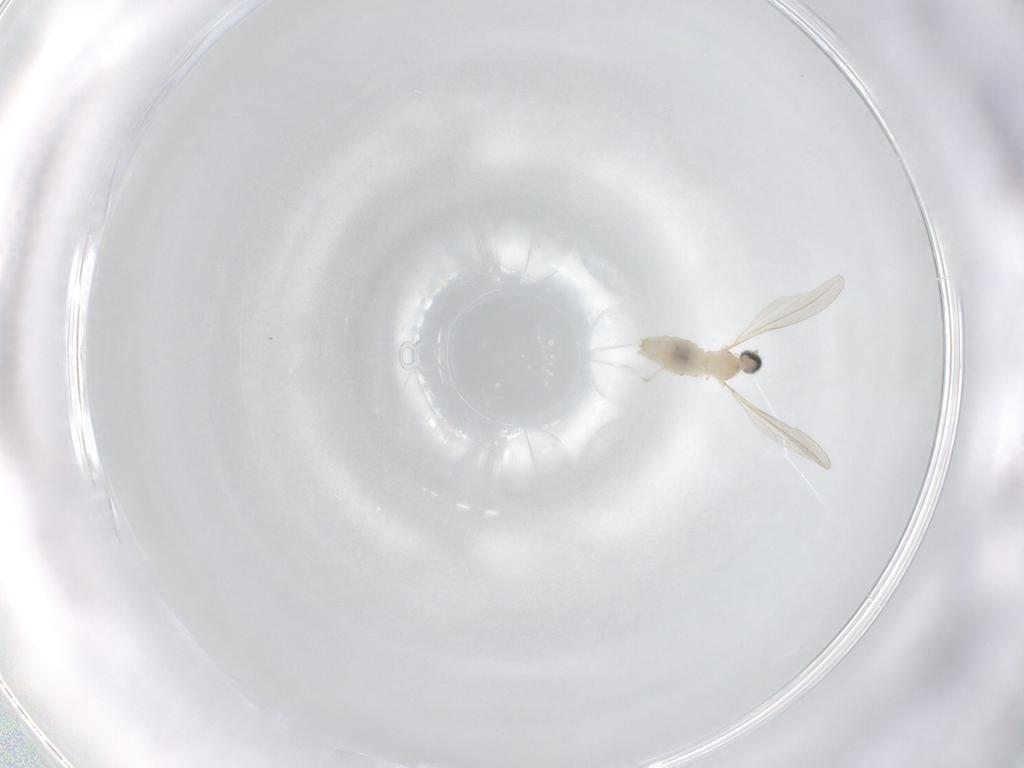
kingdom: Animalia
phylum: Arthropoda
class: Insecta
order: Diptera
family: Cecidomyiidae
